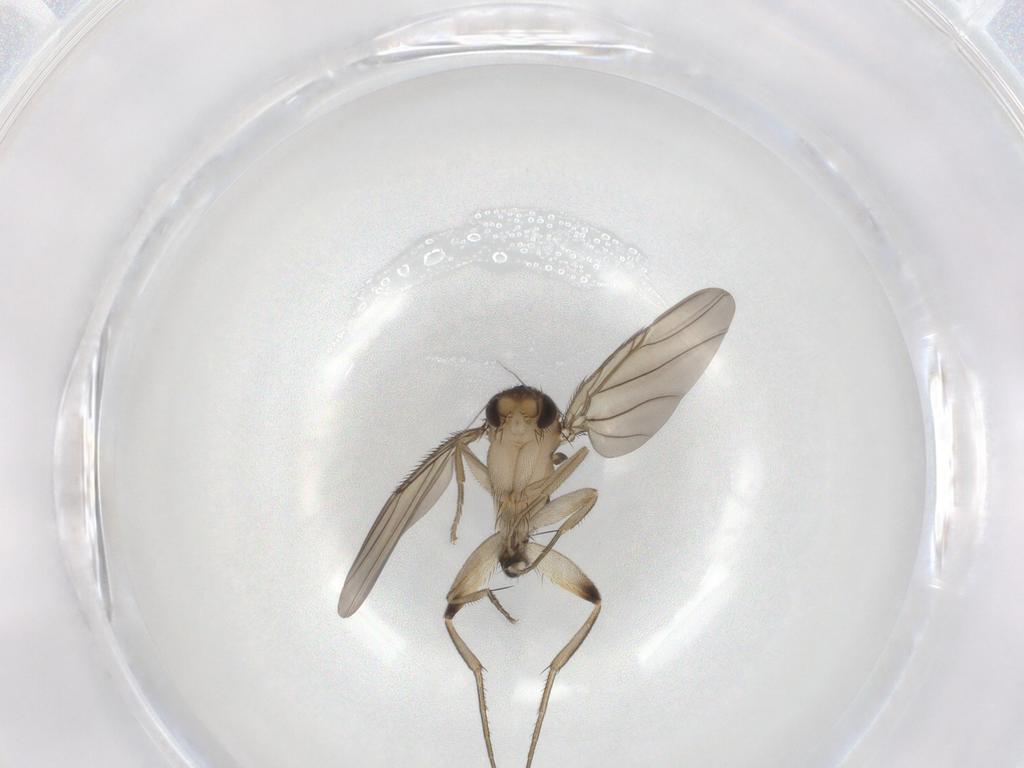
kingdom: Animalia
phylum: Arthropoda
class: Insecta
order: Diptera
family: Phoridae
